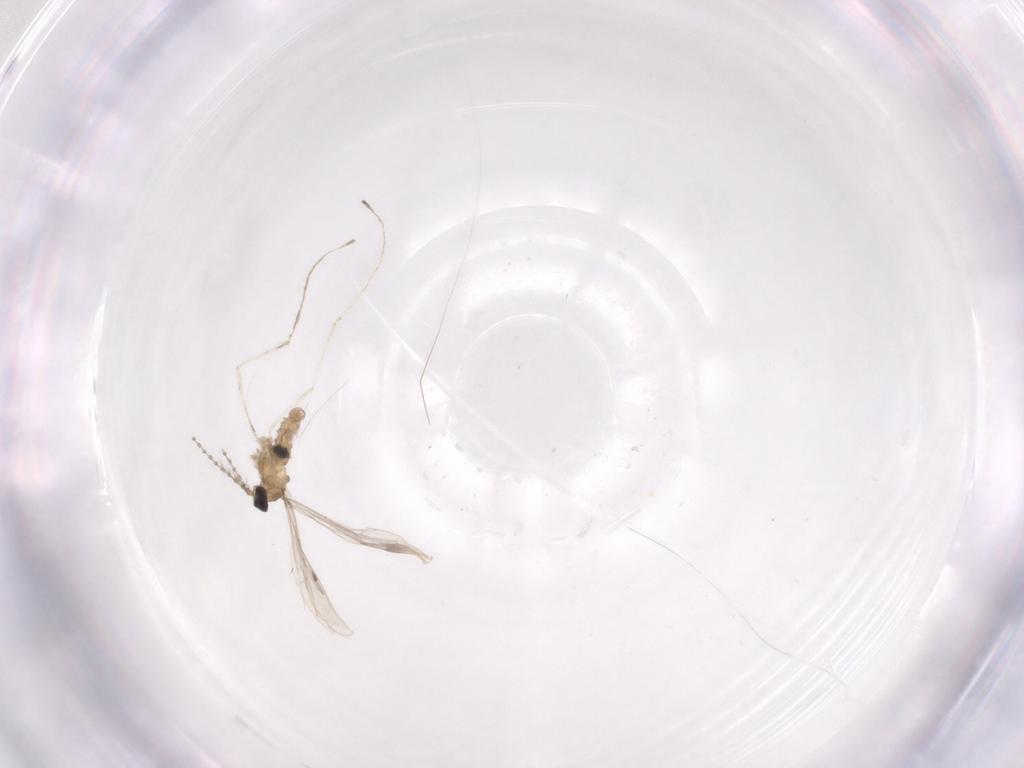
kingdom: Animalia
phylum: Arthropoda
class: Insecta
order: Diptera
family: Cecidomyiidae
